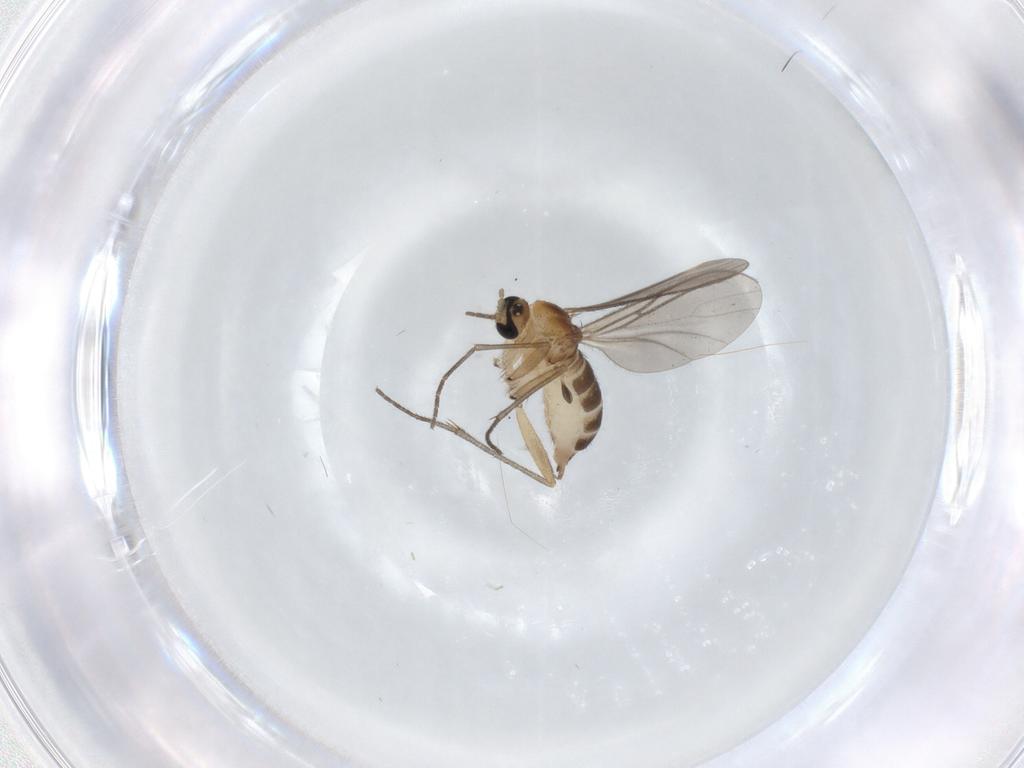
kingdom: Animalia
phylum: Arthropoda
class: Insecta
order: Diptera
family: Sciaridae
